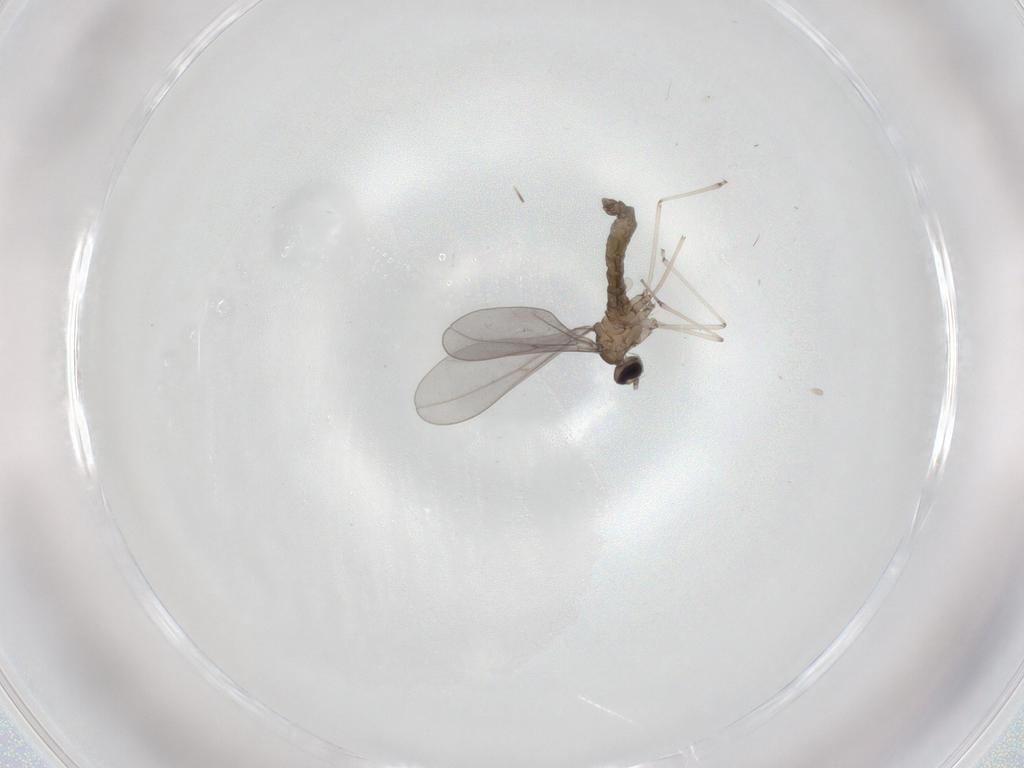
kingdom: Animalia
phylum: Arthropoda
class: Insecta
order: Diptera
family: Cecidomyiidae
